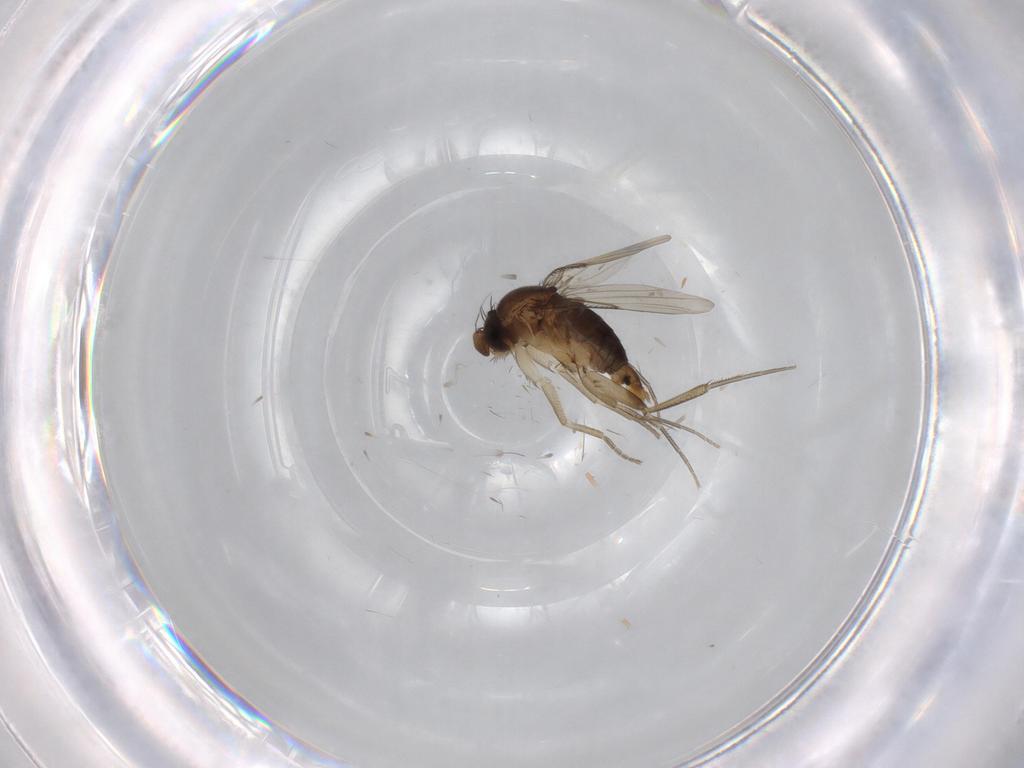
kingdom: Animalia
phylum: Arthropoda
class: Insecta
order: Diptera
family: Phoridae
